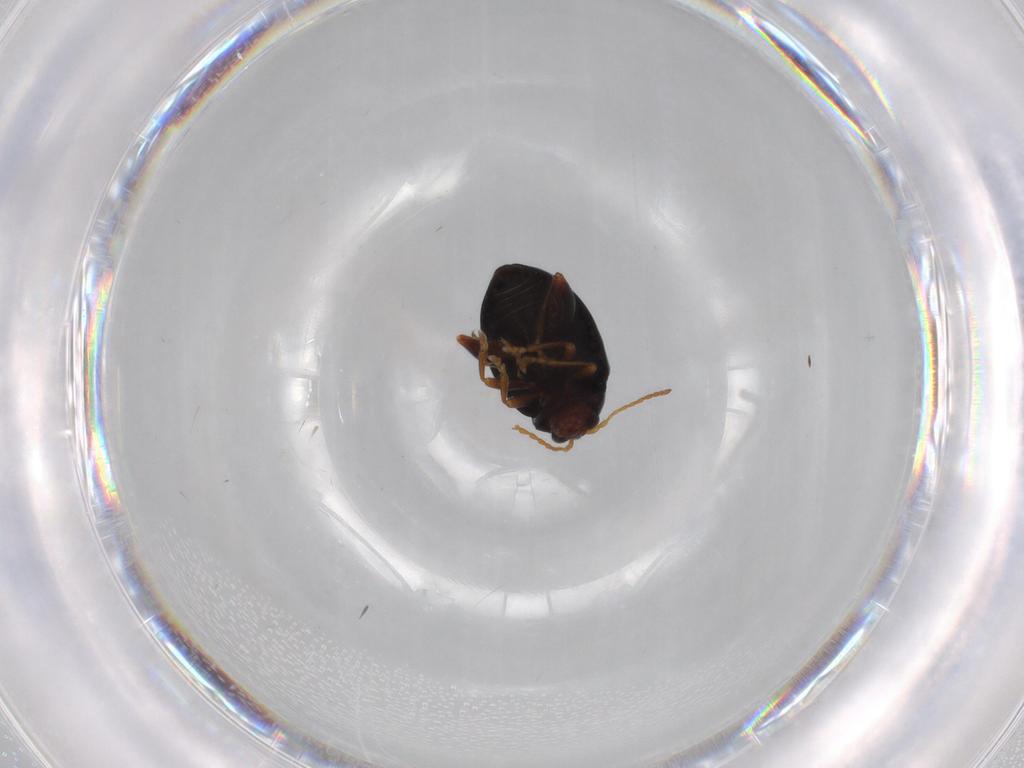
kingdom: Animalia
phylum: Arthropoda
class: Insecta
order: Coleoptera
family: Chrysomelidae
